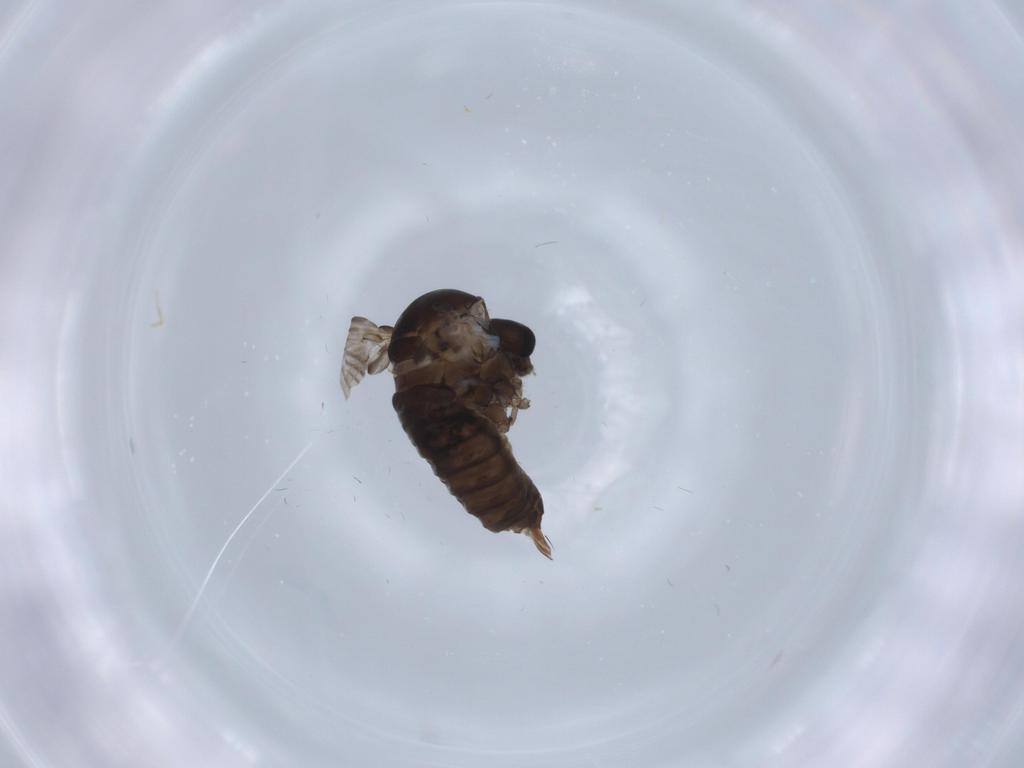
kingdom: Animalia
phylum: Arthropoda
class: Insecta
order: Diptera
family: Psychodidae
